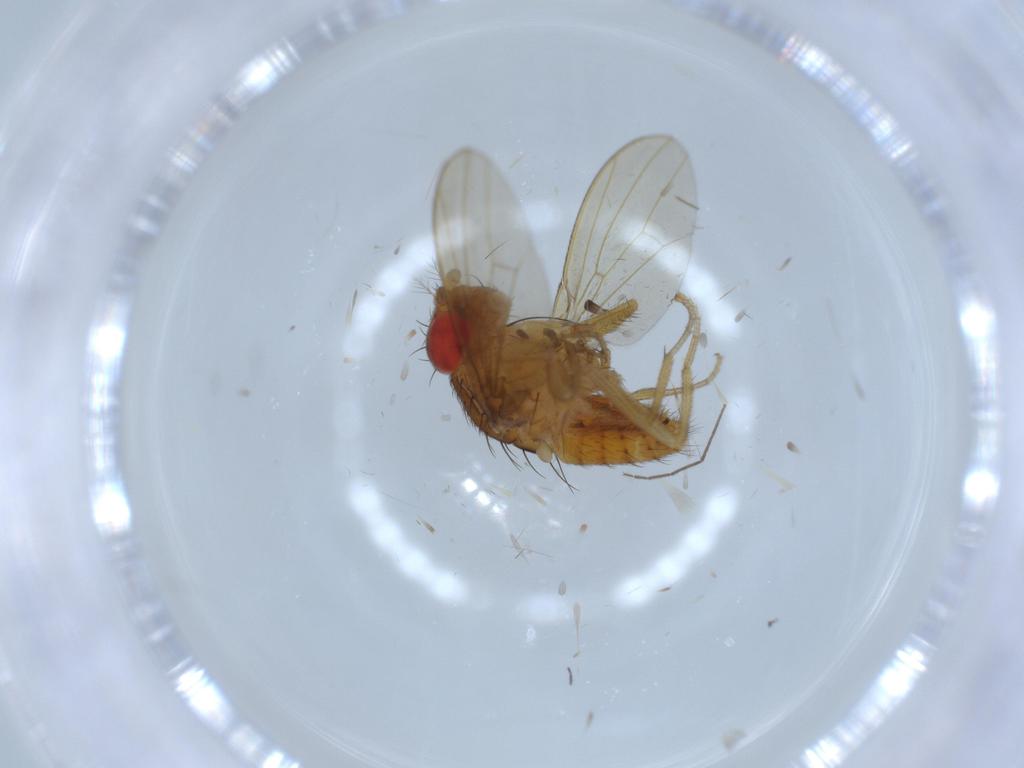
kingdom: Animalia
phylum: Arthropoda
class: Insecta
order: Diptera
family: Drosophilidae
